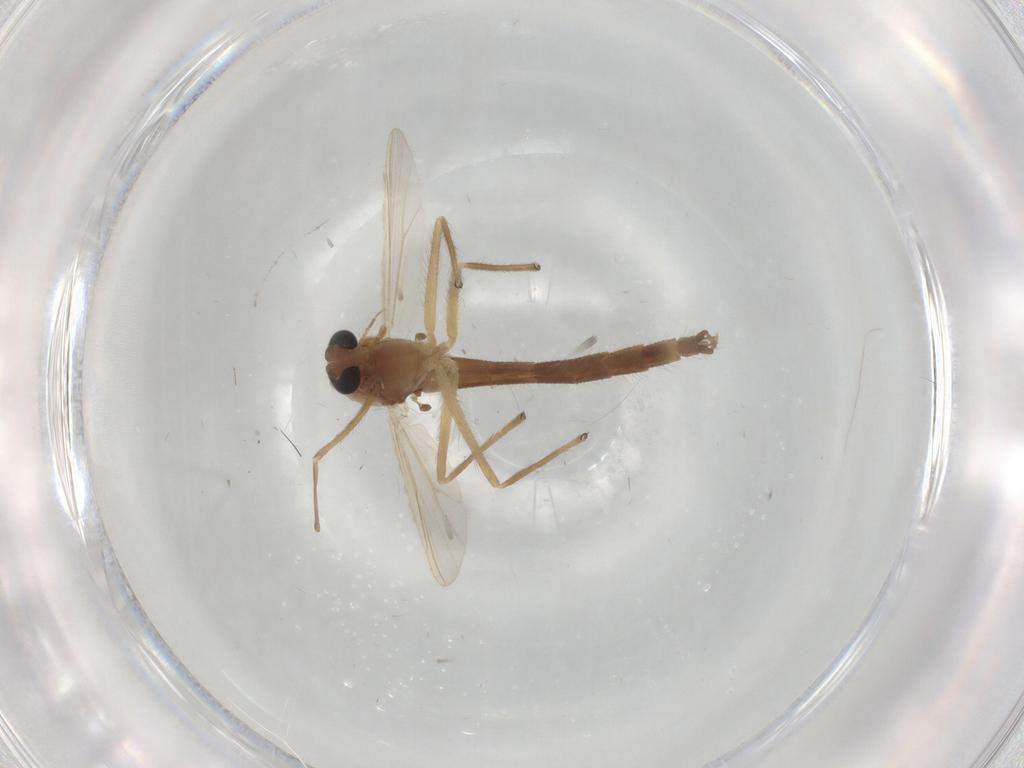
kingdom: Animalia
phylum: Arthropoda
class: Insecta
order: Diptera
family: Chironomidae
